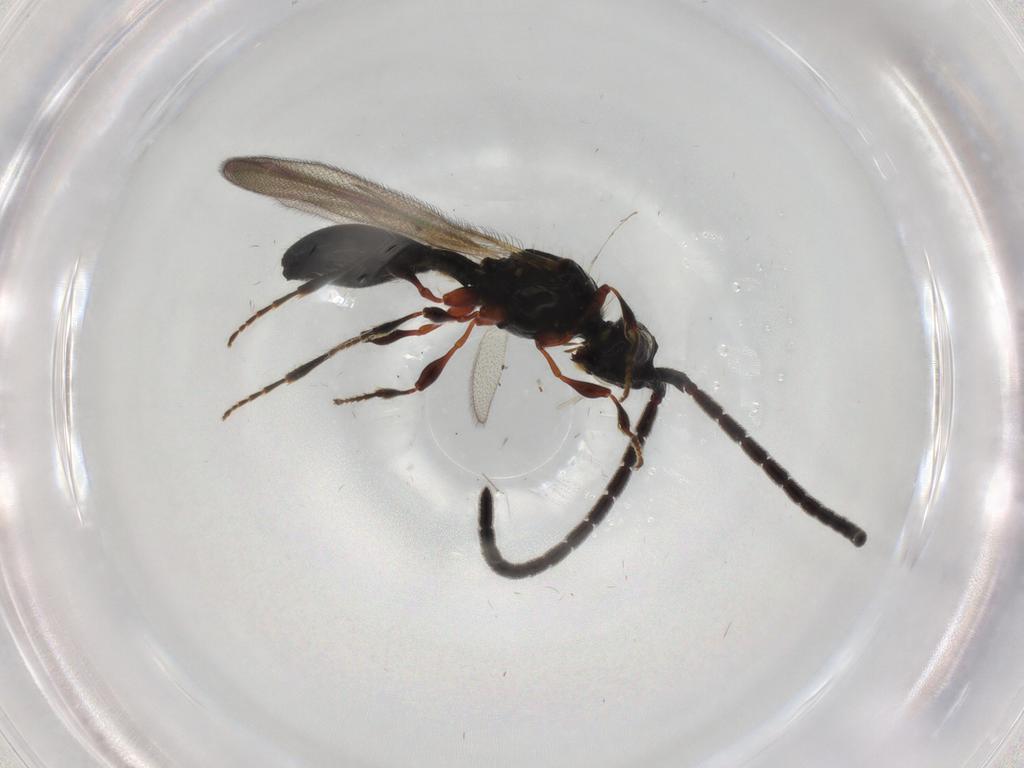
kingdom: Animalia
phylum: Arthropoda
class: Insecta
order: Hymenoptera
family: Diapriidae
